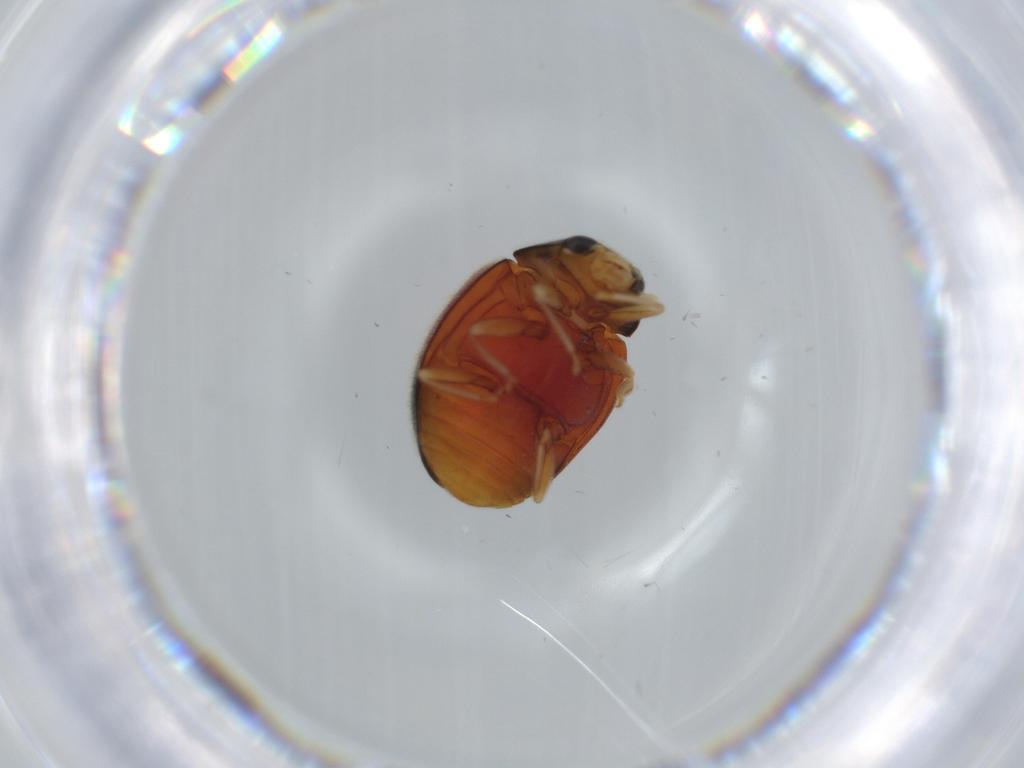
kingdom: Animalia
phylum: Arthropoda
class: Insecta
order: Coleoptera
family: Coccinellidae
